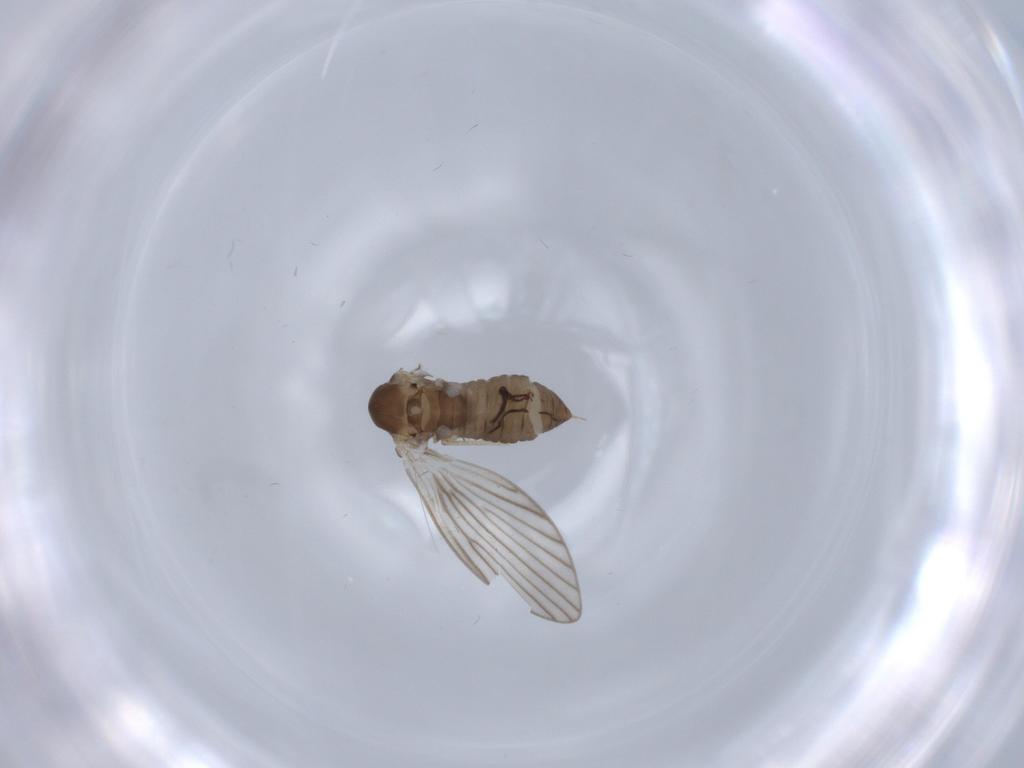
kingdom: Animalia
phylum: Arthropoda
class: Insecta
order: Diptera
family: Psychodidae
